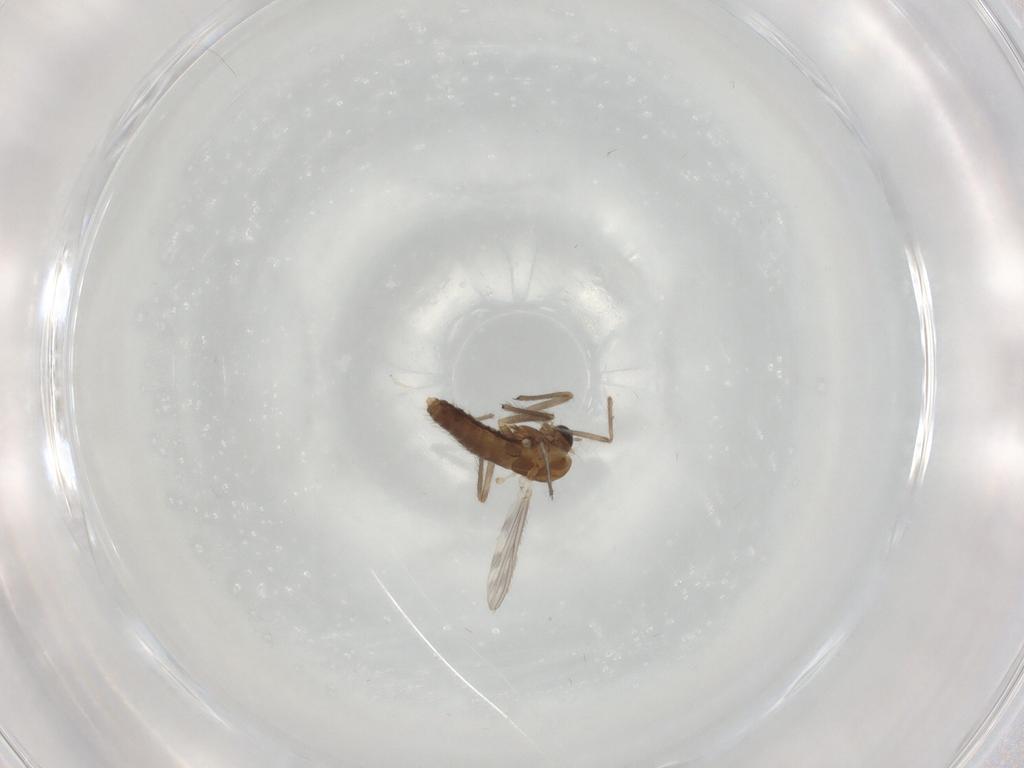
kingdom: Animalia
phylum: Arthropoda
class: Insecta
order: Diptera
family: Chironomidae
